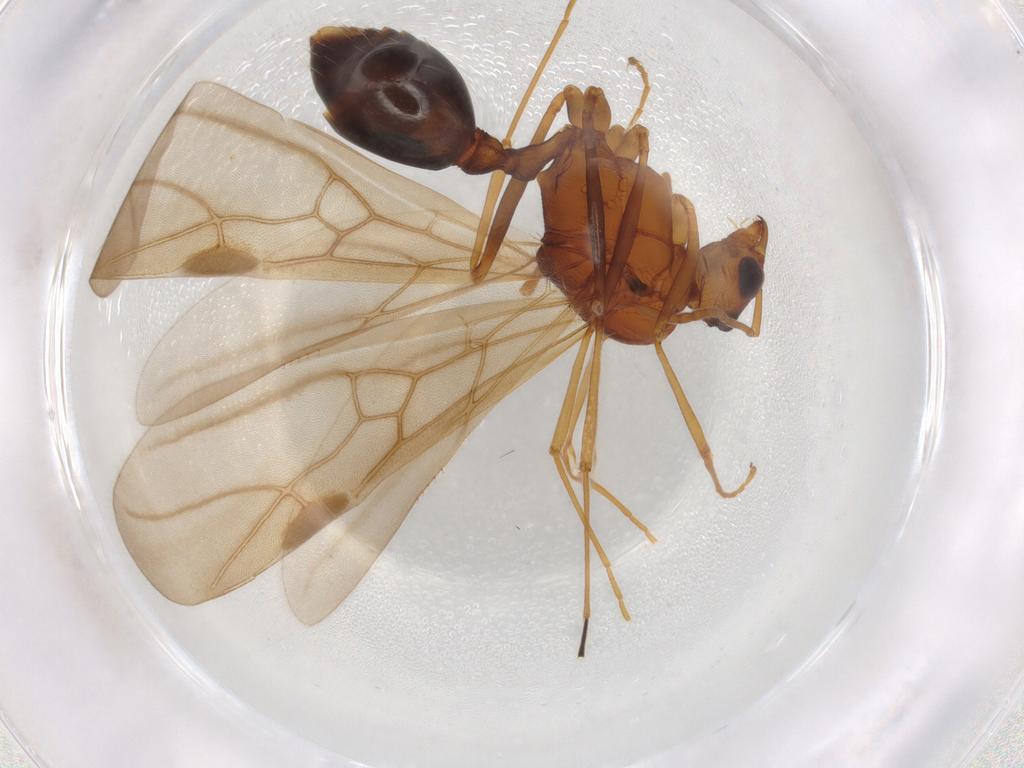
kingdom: Animalia
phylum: Arthropoda
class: Insecta
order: Hymenoptera
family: Formicidae
